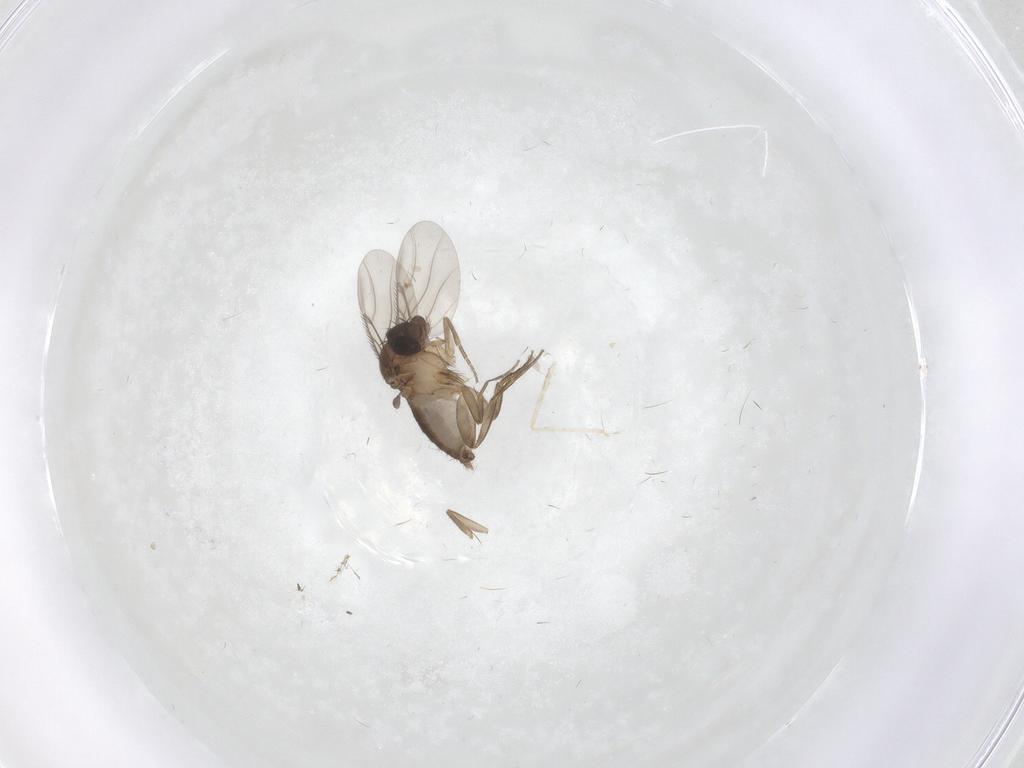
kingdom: Animalia
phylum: Arthropoda
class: Insecta
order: Diptera
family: Phoridae
